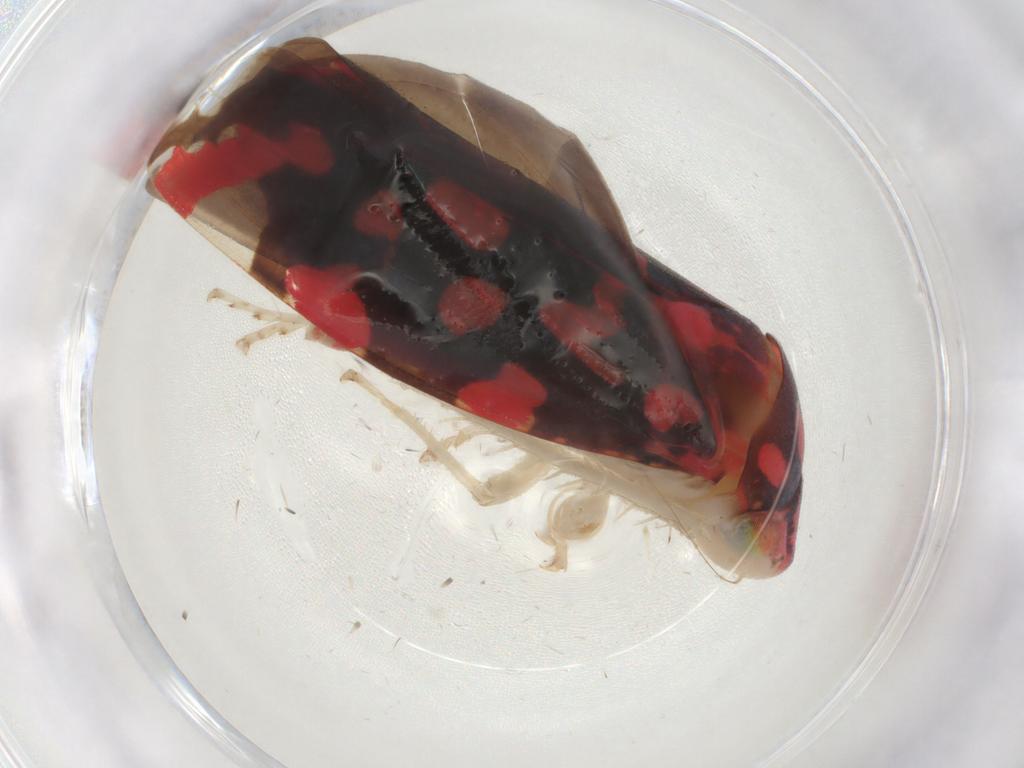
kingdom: Animalia
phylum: Arthropoda
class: Insecta
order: Hemiptera
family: Cicadellidae
